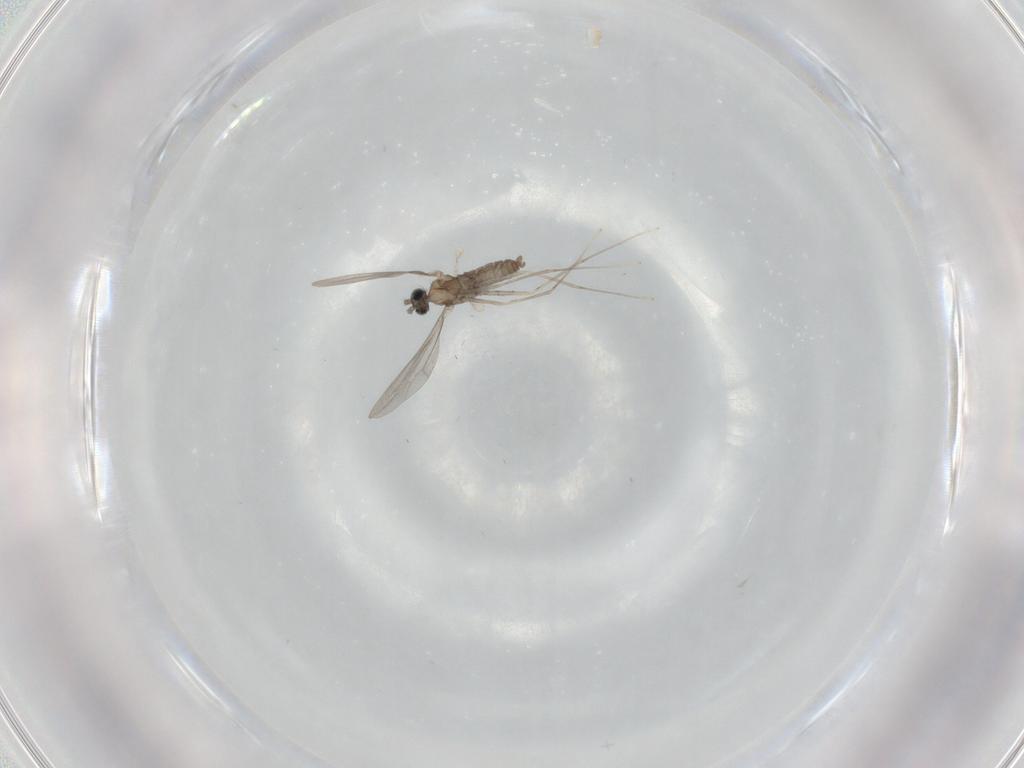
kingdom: Animalia
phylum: Arthropoda
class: Insecta
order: Diptera
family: Cecidomyiidae
